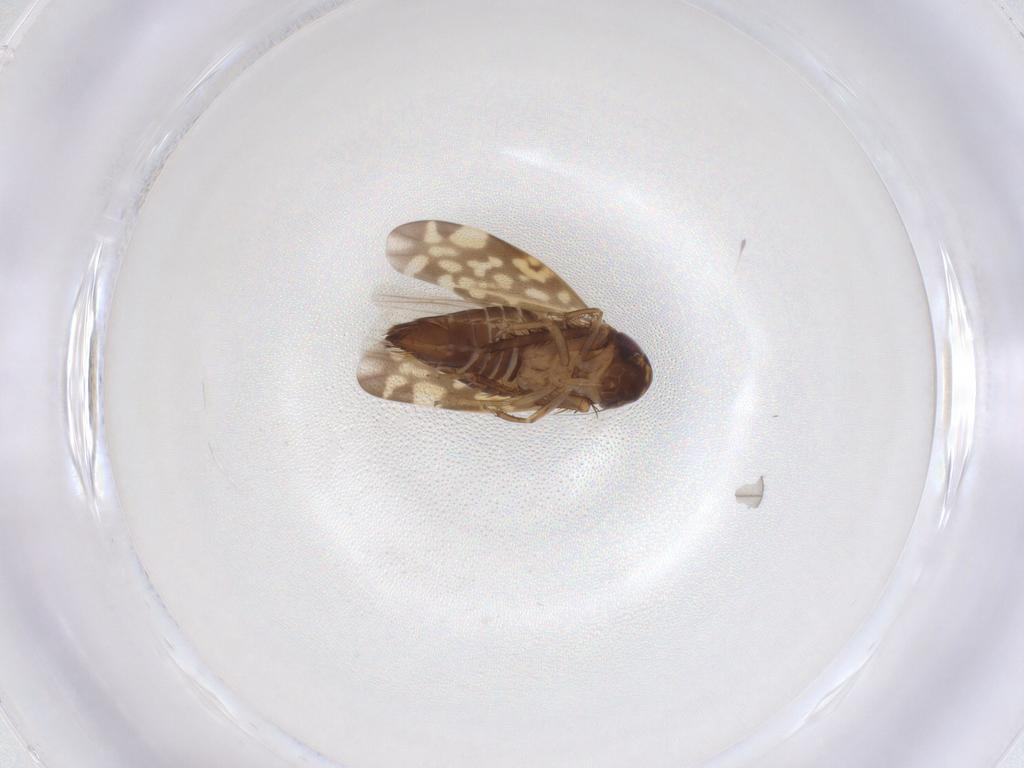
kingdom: Animalia
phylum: Arthropoda
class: Insecta
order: Hemiptera
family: Cicadellidae
